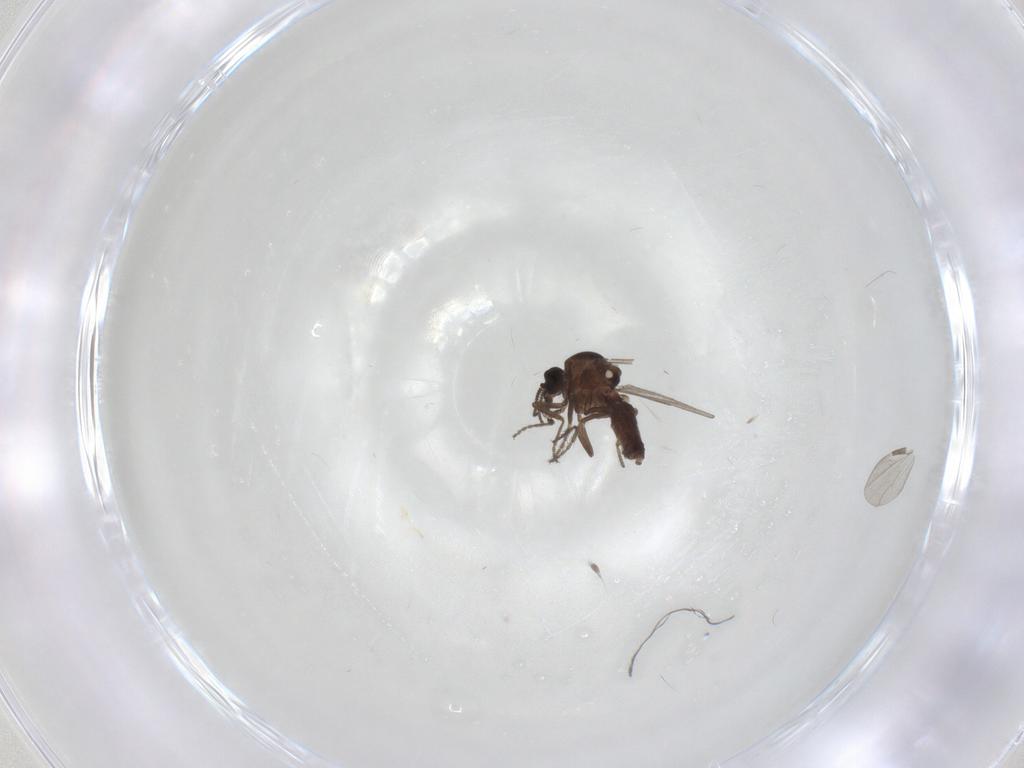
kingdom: Animalia
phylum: Arthropoda
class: Insecta
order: Diptera
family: Ceratopogonidae
